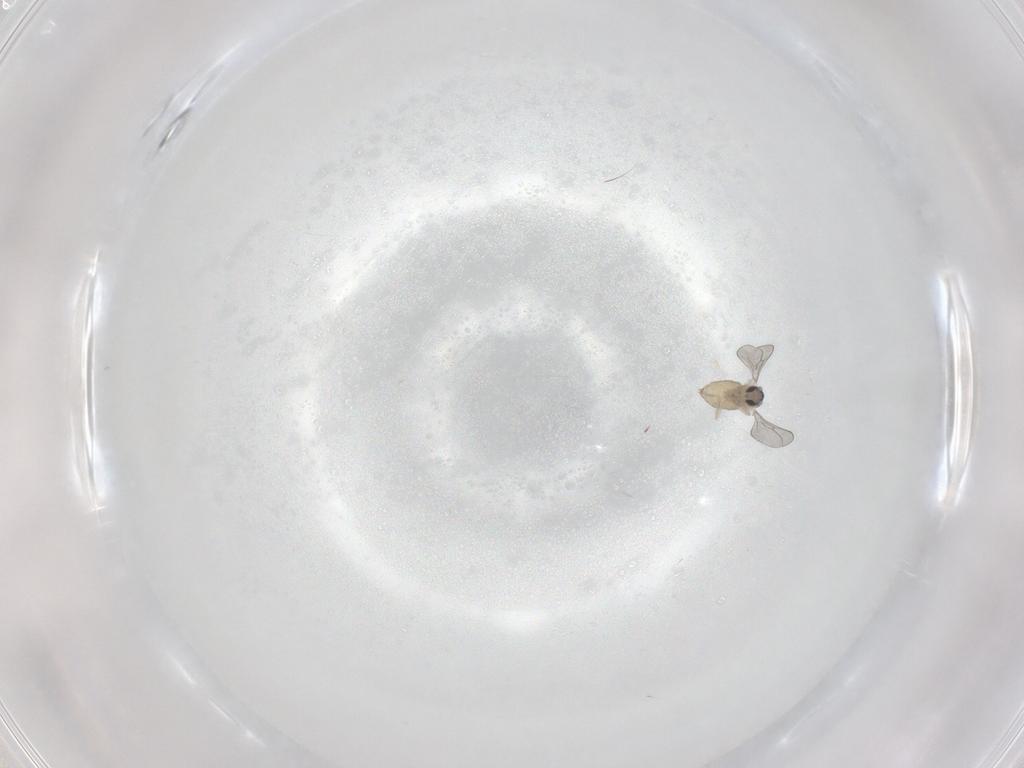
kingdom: Animalia
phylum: Arthropoda
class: Insecta
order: Diptera
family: Cecidomyiidae
